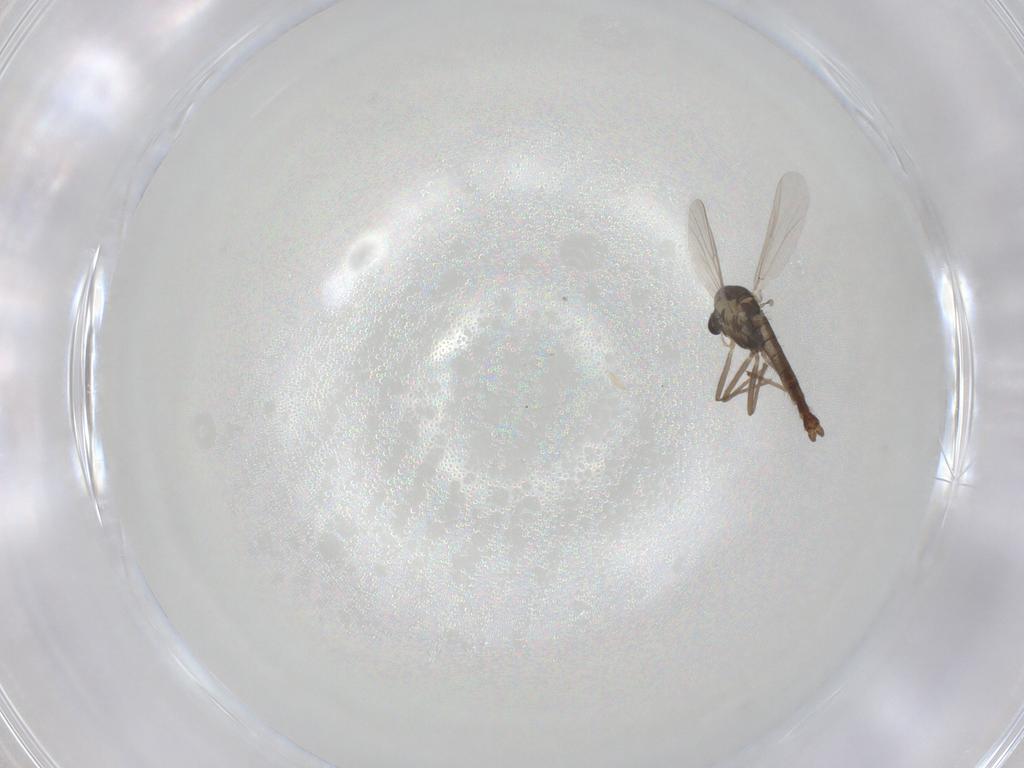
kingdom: Animalia
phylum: Arthropoda
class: Insecta
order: Diptera
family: Chironomidae
